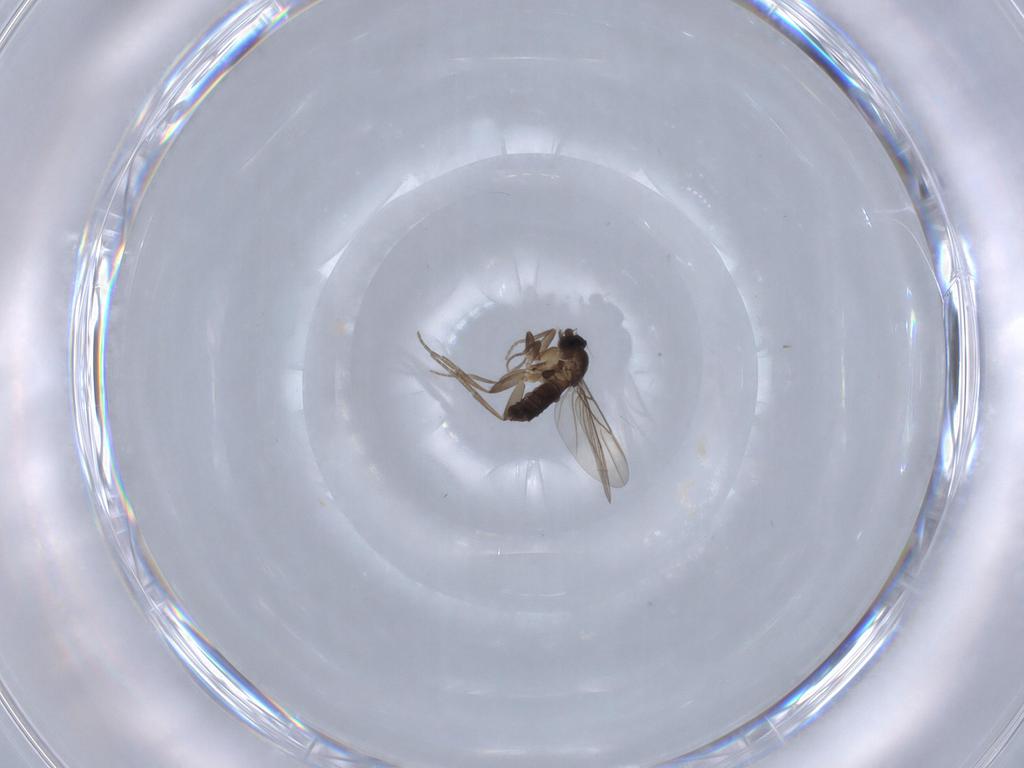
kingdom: Animalia
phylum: Arthropoda
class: Insecta
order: Diptera
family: Phoridae
